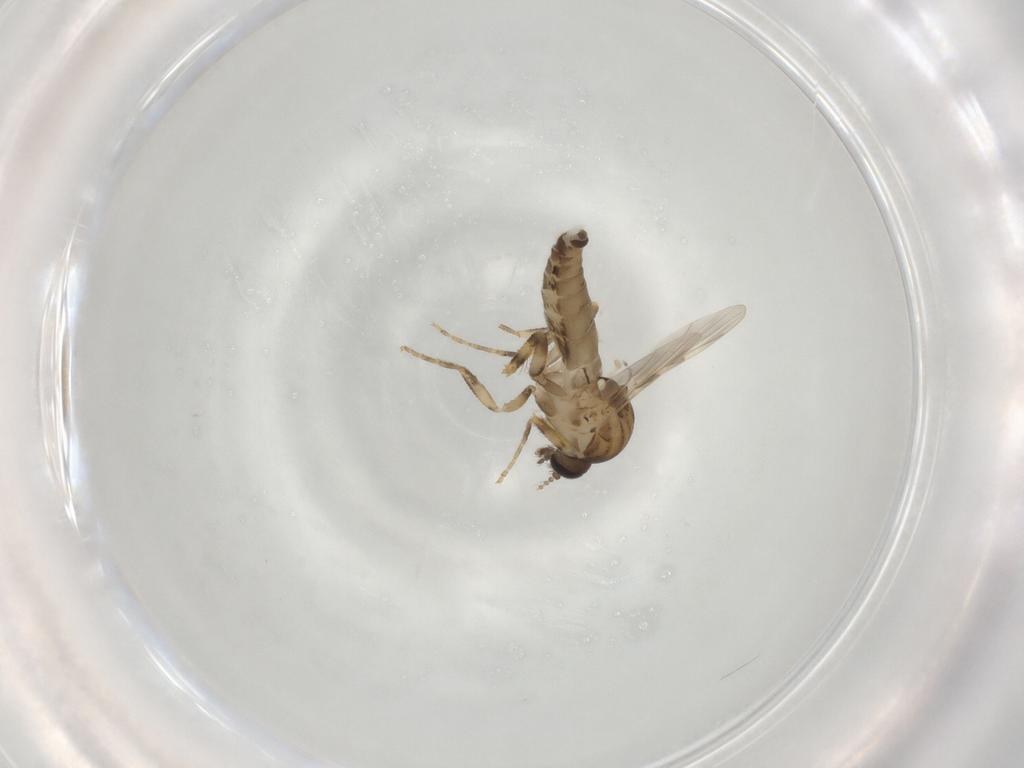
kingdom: Animalia
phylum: Arthropoda
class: Insecta
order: Diptera
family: Ceratopogonidae
